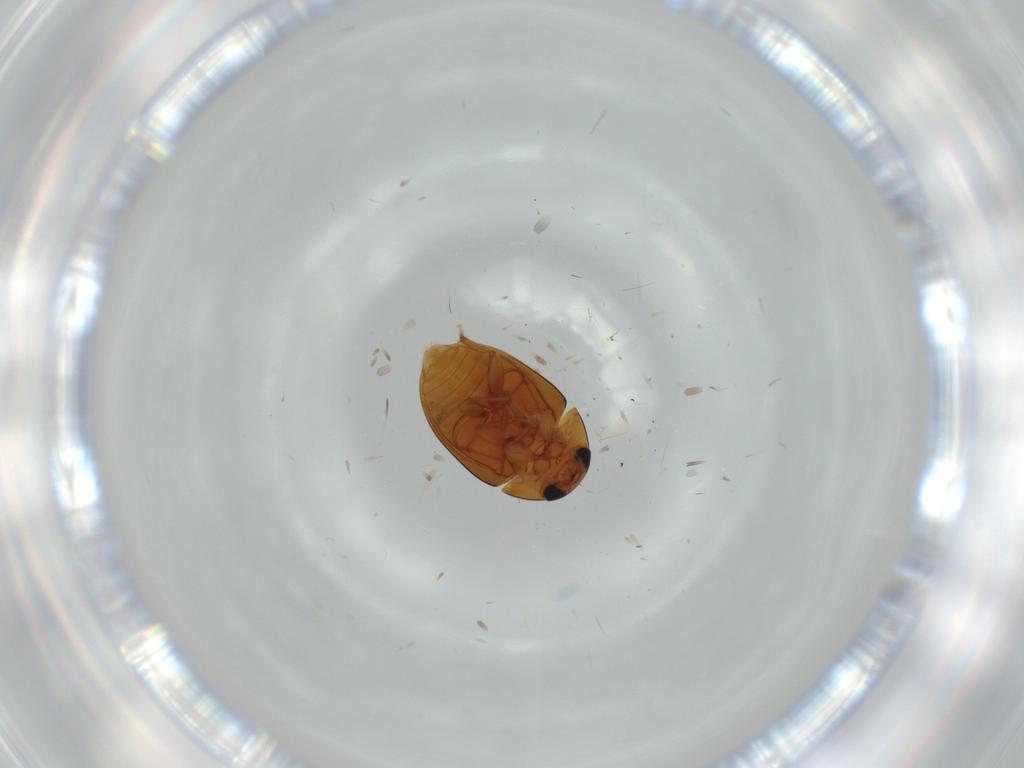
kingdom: Animalia
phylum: Arthropoda
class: Insecta
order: Coleoptera
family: Phalacridae
